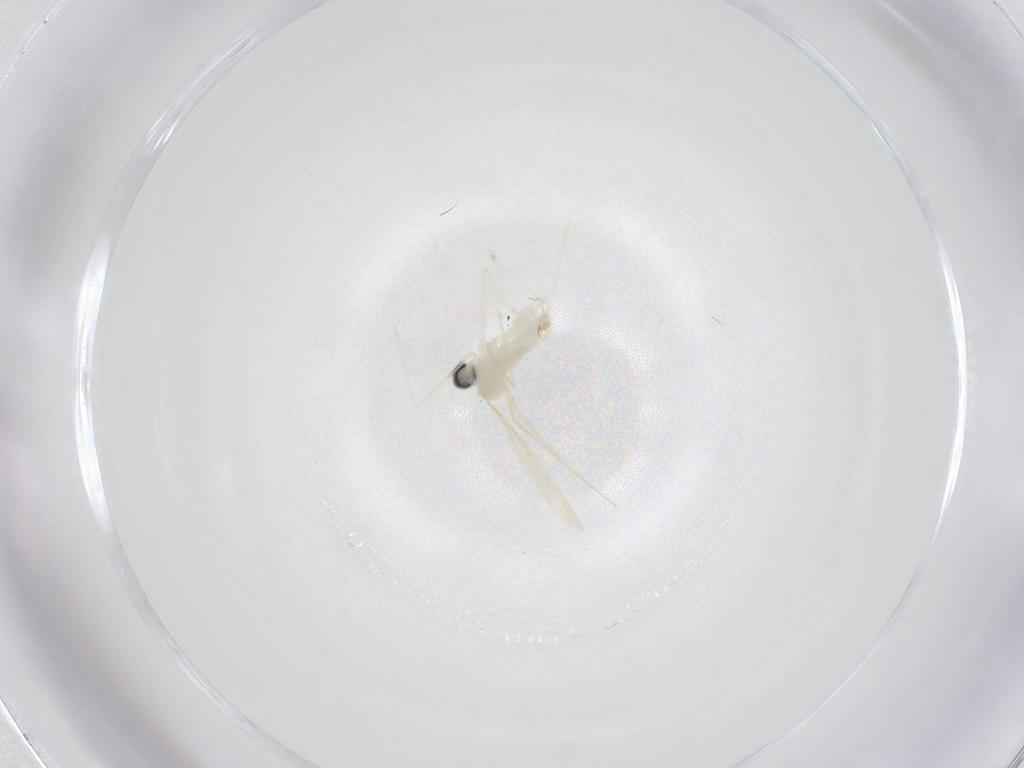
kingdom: Animalia
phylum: Arthropoda
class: Insecta
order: Diptera
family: Cecidomyiidae
